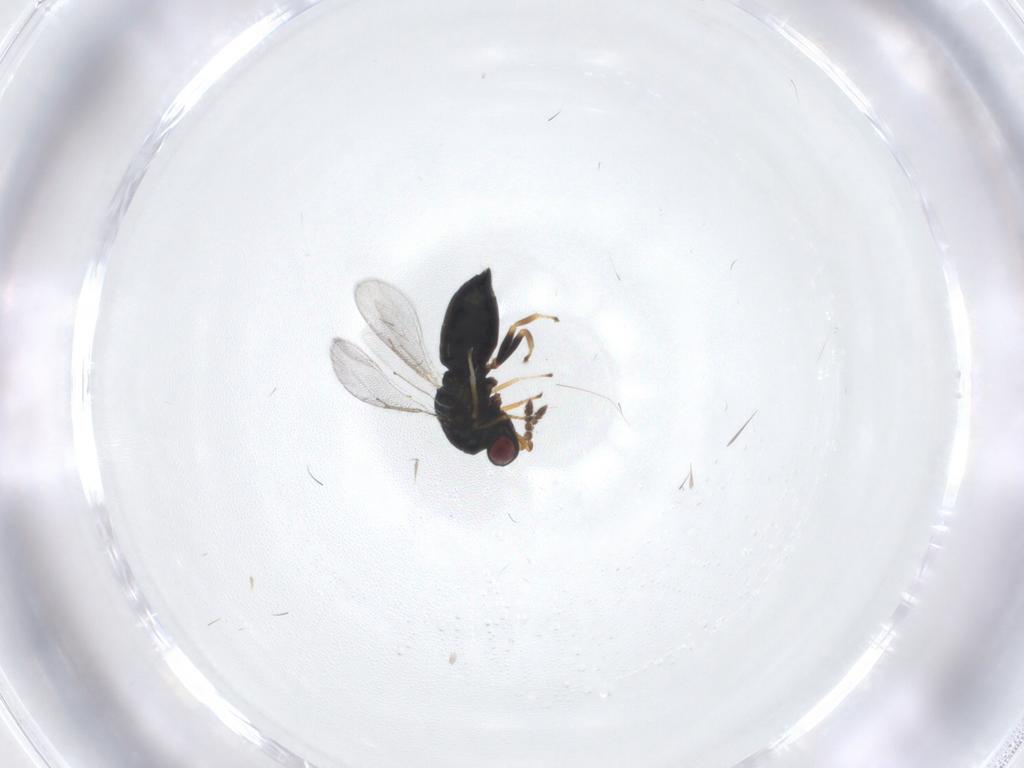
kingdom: Animalia
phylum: Arthropoda
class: Insecta
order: Hymenoptera
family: Eulophidae
